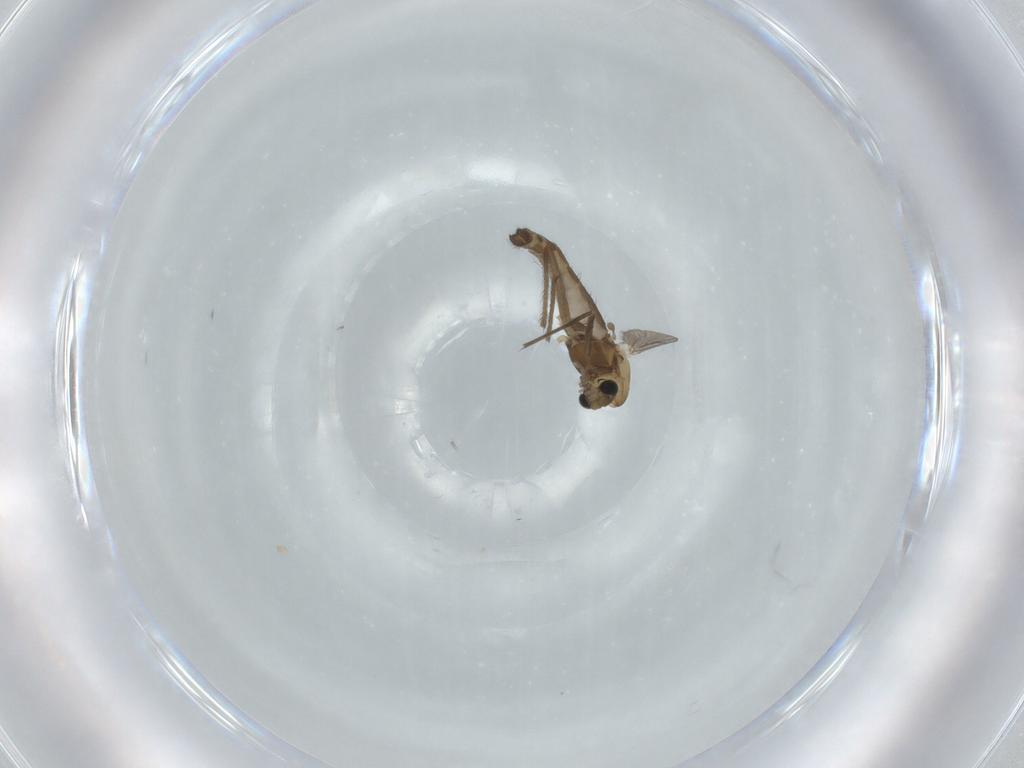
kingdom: Animalia
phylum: Arthropoda
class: Insecta
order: Diptera
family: Chironomidae
